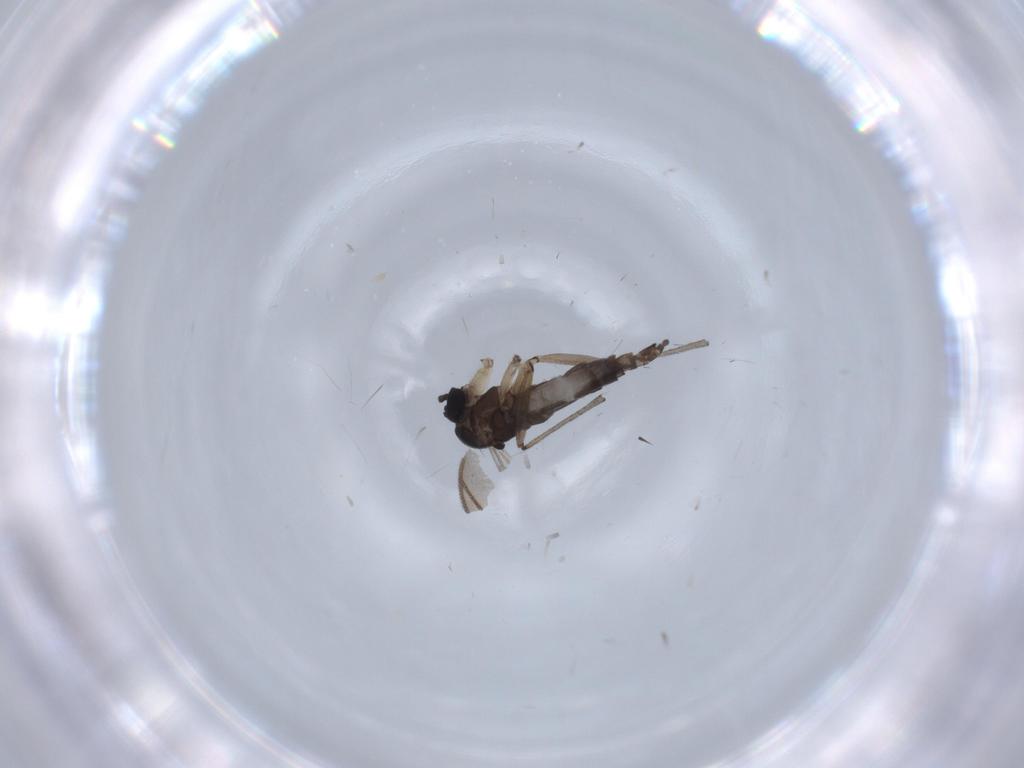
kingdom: Animalia
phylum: Arthropoda
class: Insecta
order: Diptera
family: Sciaridae
